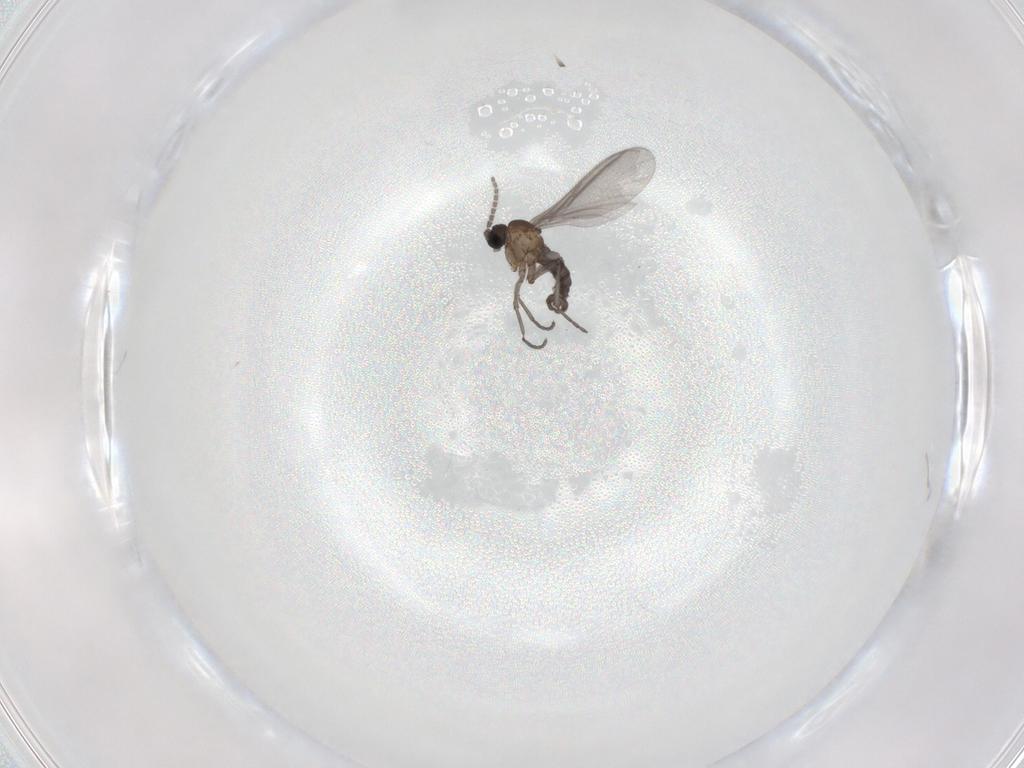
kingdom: Animalia
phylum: Arthropoda
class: Insecta
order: Diptera
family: Sciaridae
